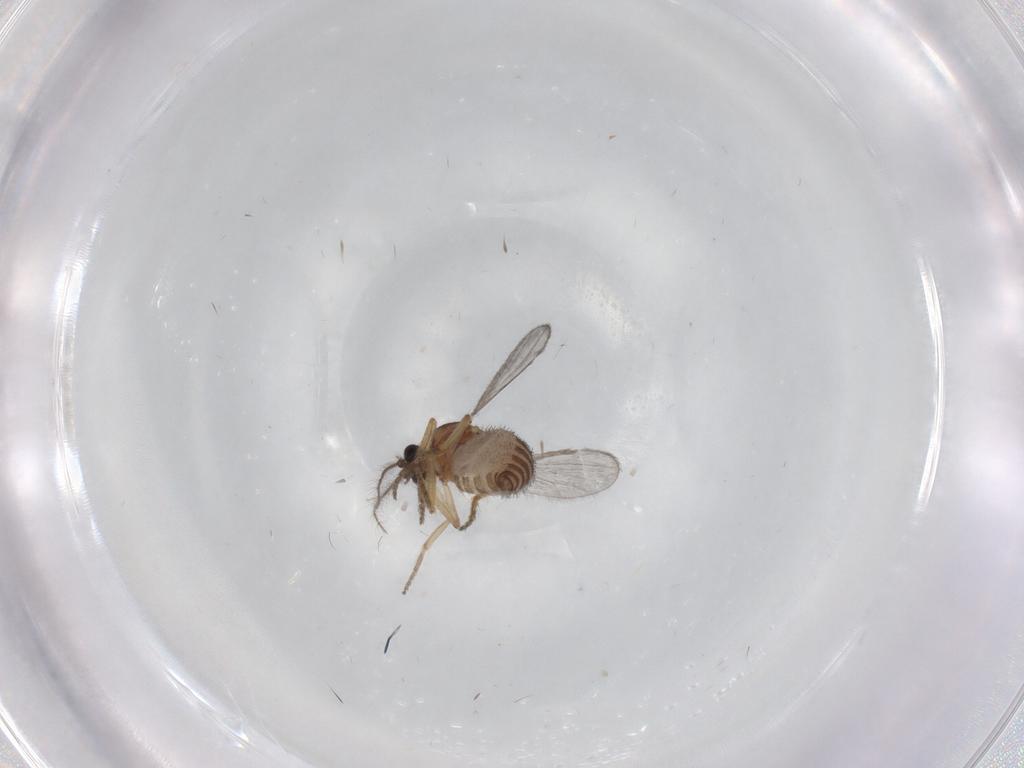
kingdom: Animalia
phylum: Arthropoda
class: Insecta
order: Diptera
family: Limoniidae
